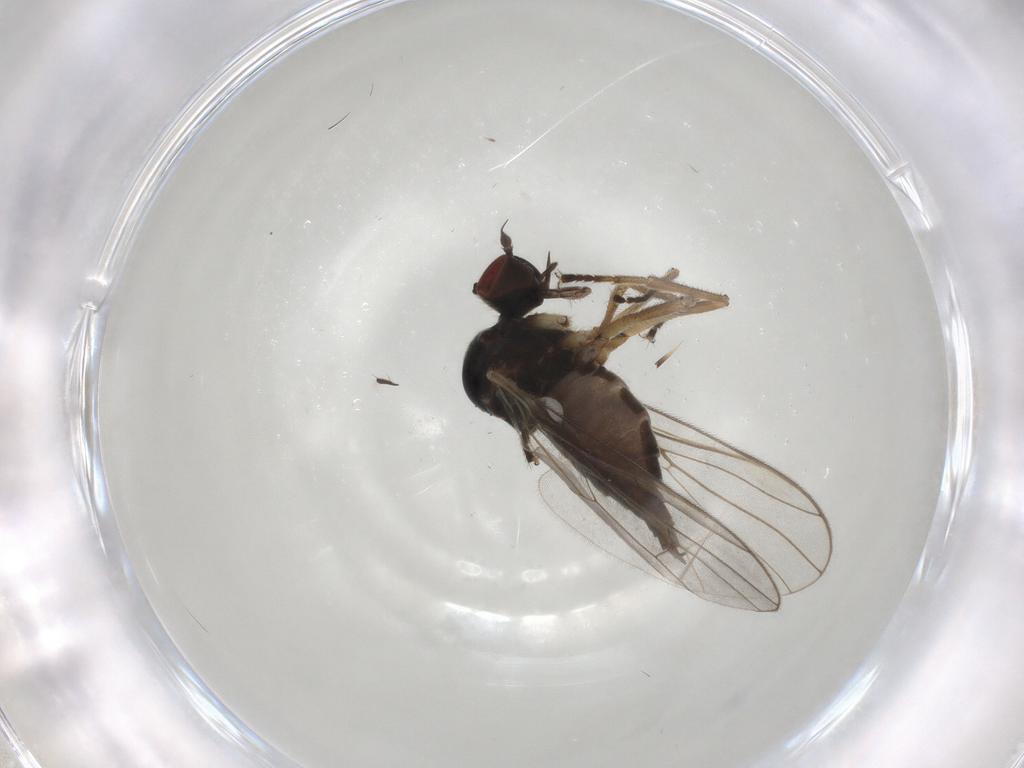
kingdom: Animalia
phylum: Arthropoda
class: Insecta
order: Diptera
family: Hybotidae
